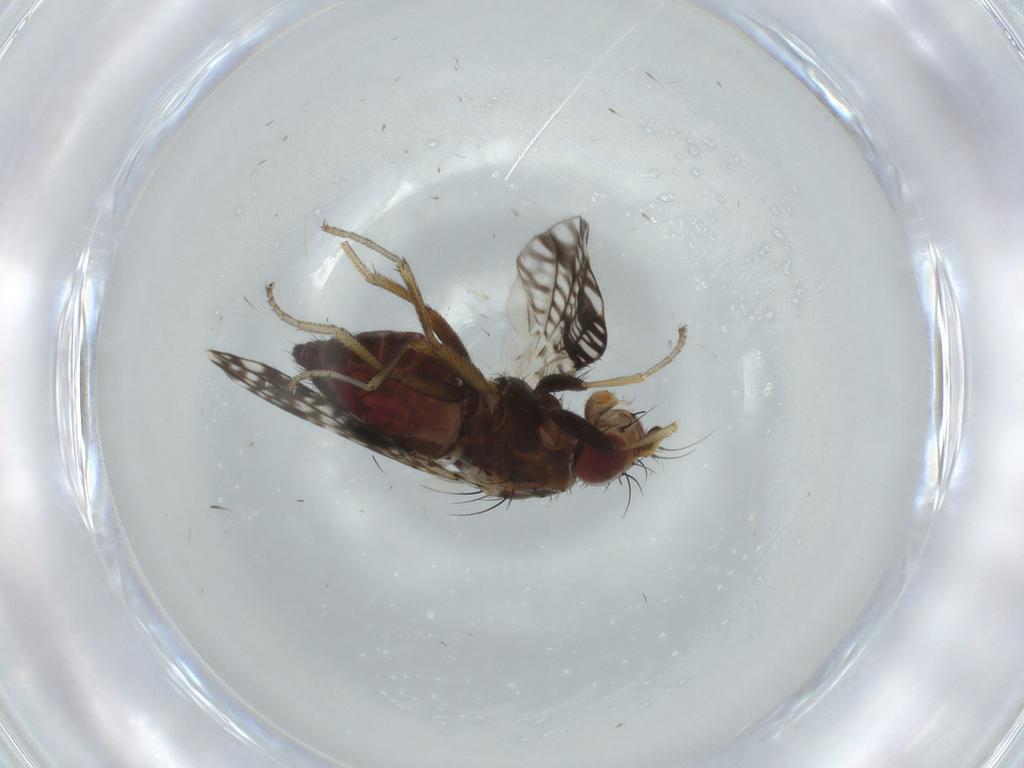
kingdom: Animalia
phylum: Arthropoda
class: Insecta
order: Diptera
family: Tephritidae
